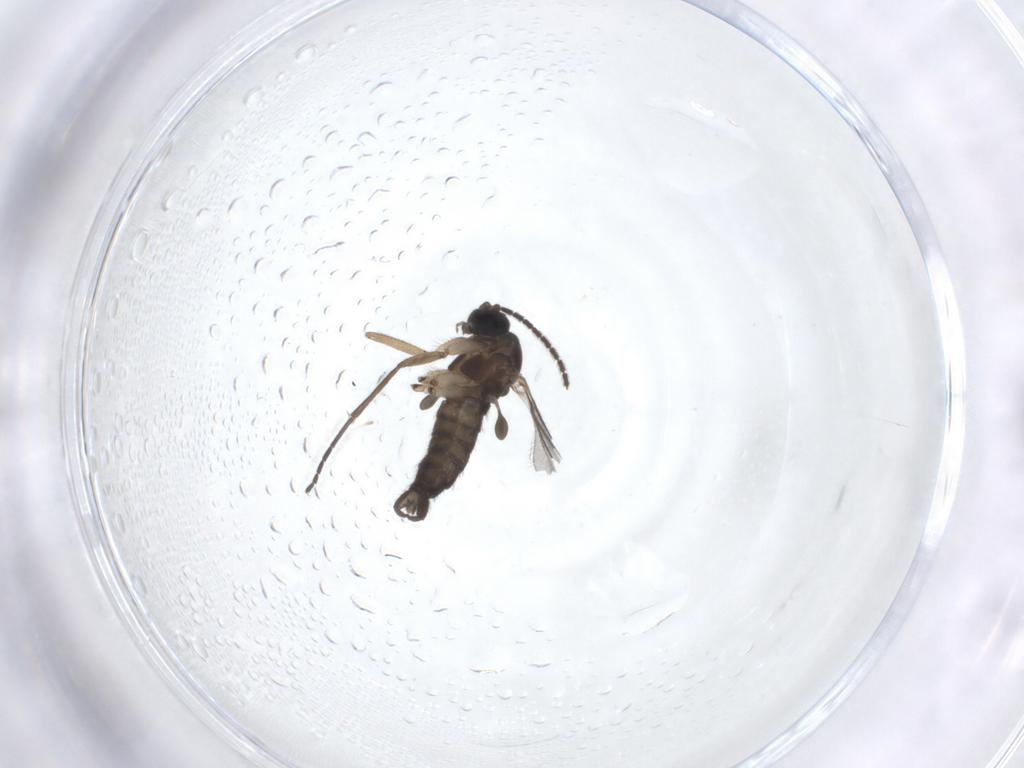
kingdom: Animalia
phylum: Arthropoda
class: Insecta
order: Diptera
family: Sciaridae
